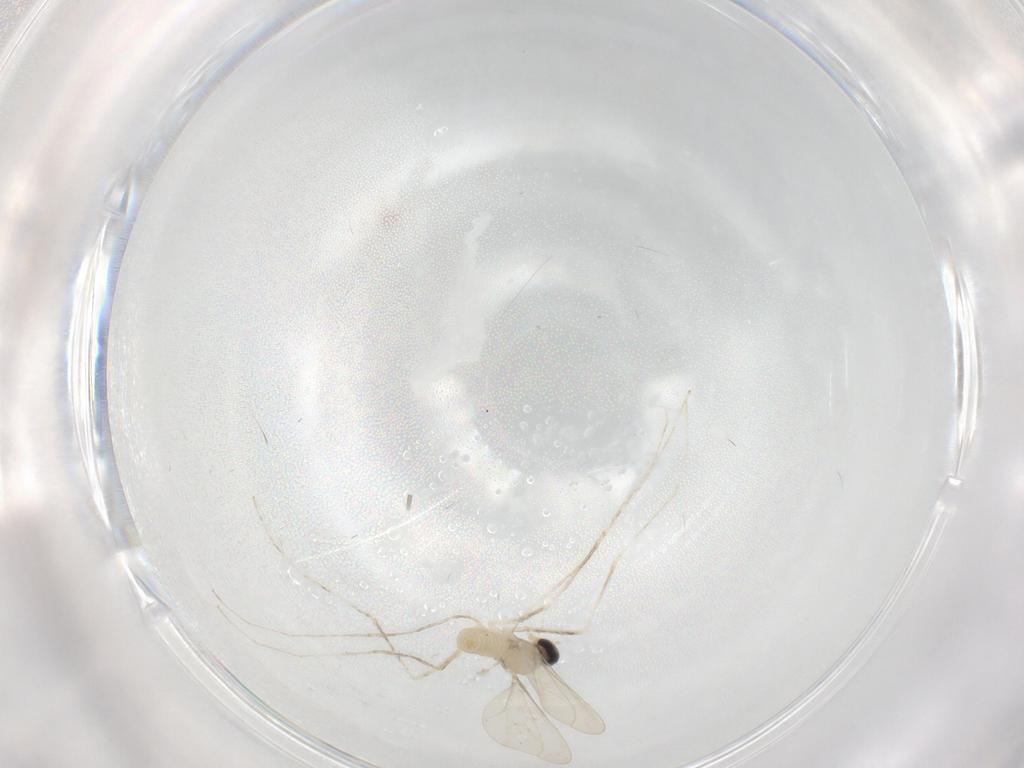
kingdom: Animalia
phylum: Arthropoda
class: Insecta
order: Diptera
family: Cecidomyiidae
